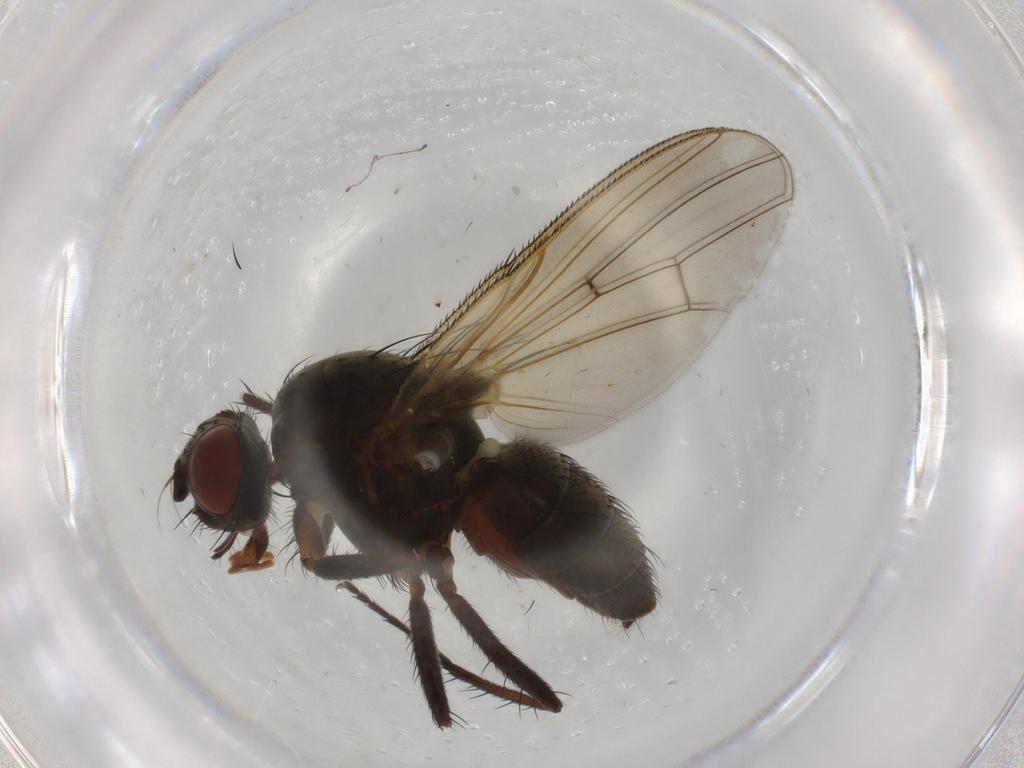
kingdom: Animalia
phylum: Arthropoda
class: Insecta
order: Diptera
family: Anthomyiidae
